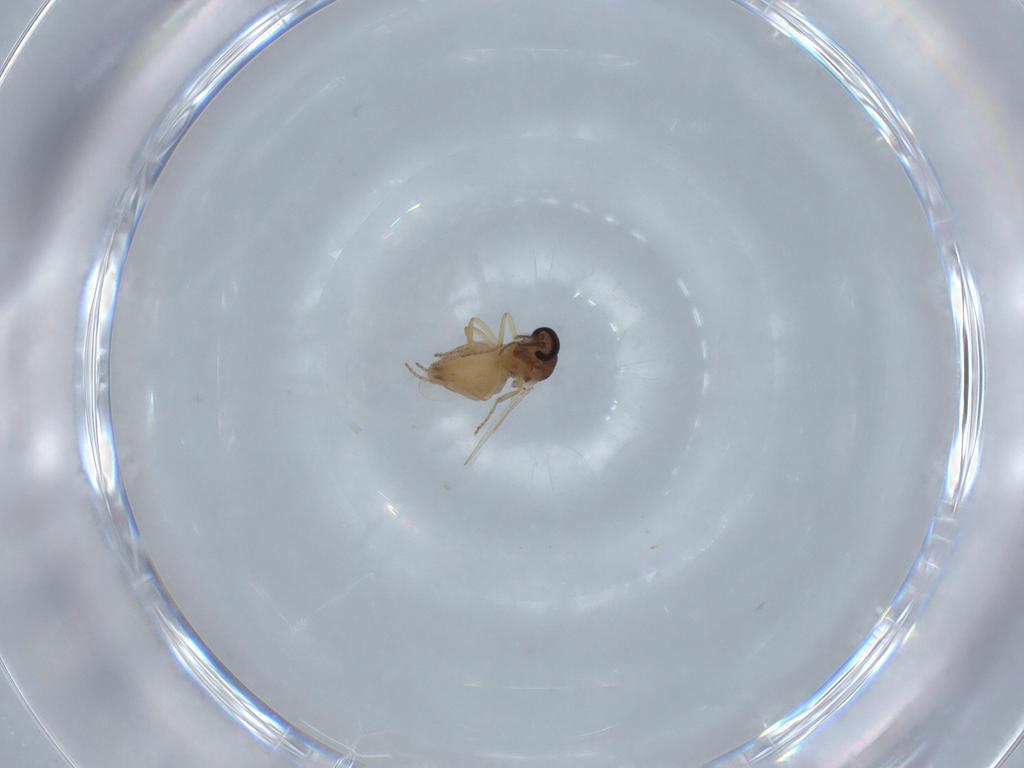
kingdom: Animalia
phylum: Arthropoda
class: Insecta
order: Diptera
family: Ceratopogonidae
